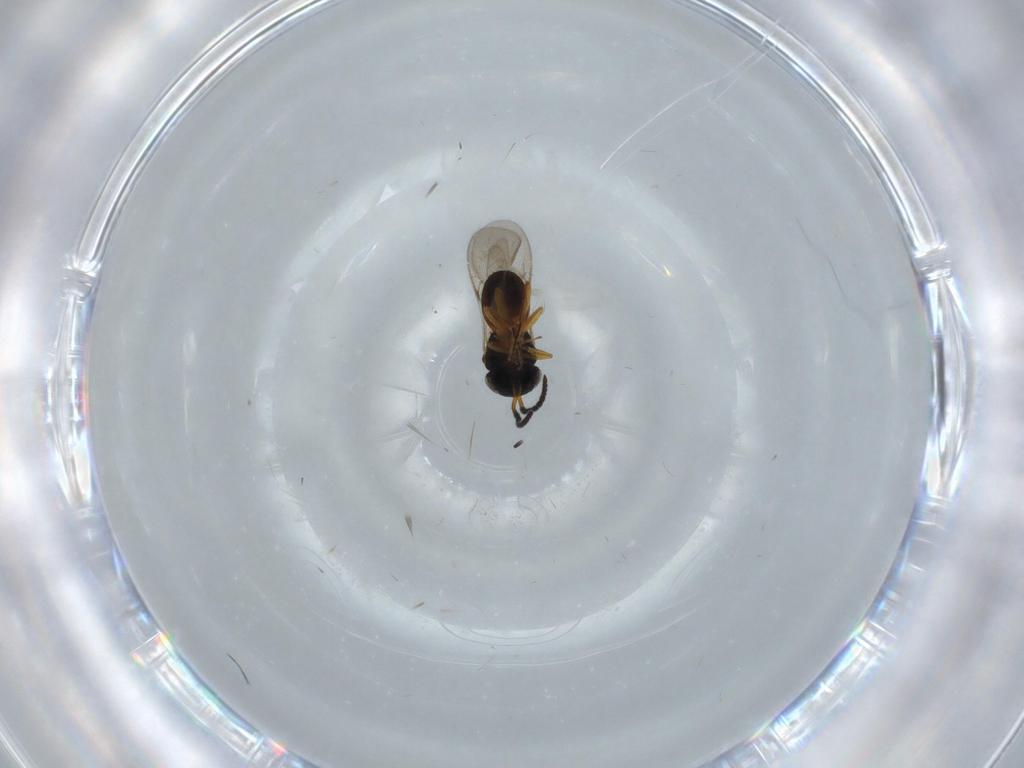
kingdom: Animalia
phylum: Arthropoda
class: Insecta
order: Coleoptera
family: Curculionidae
